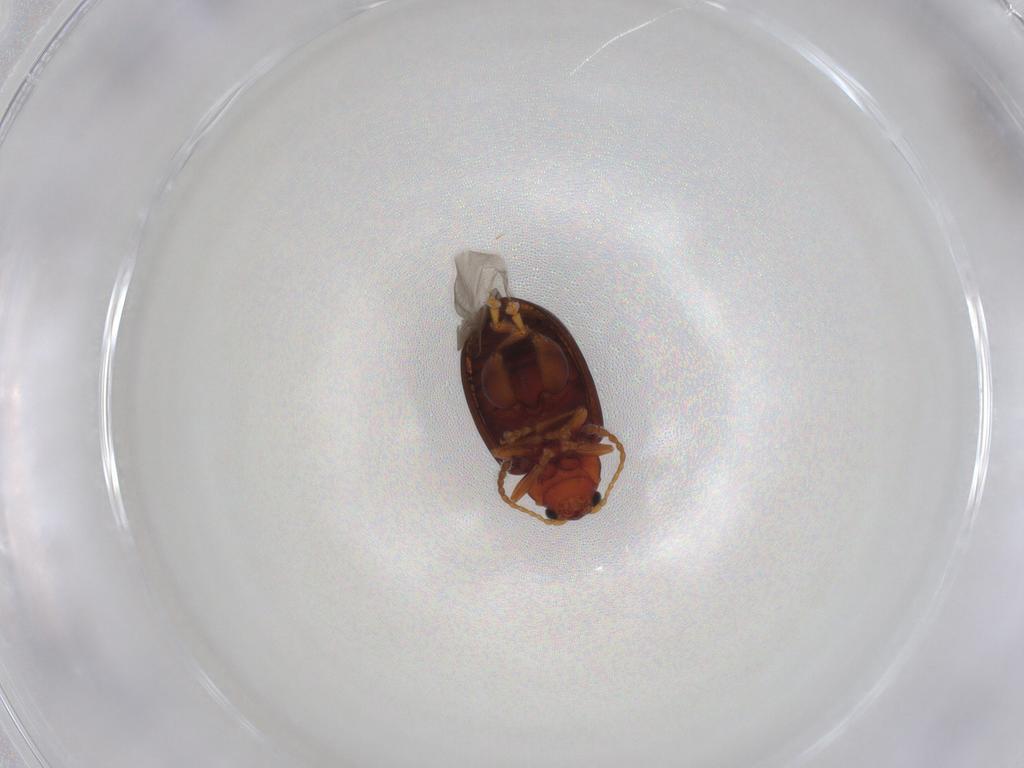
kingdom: Animalia
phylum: Arthropoda
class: Insecta
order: Coleoptera
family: Chrysomelidae
